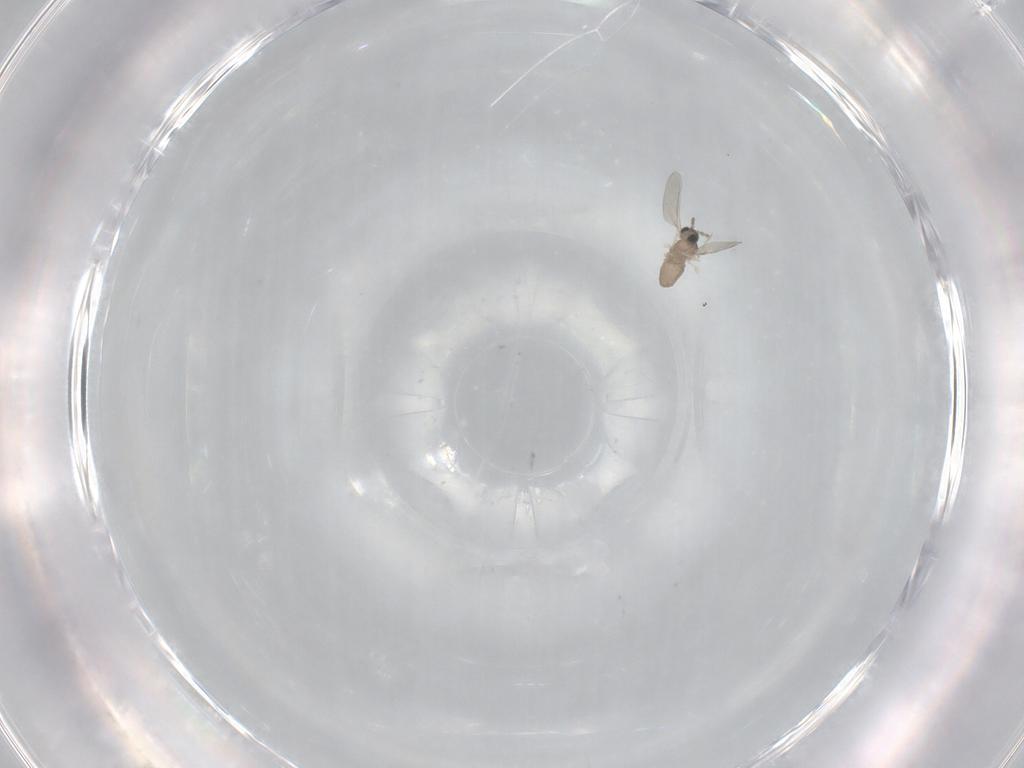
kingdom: Animalia
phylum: Arthropoda
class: Insecta
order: Diptera
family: Cecidomyiidae
